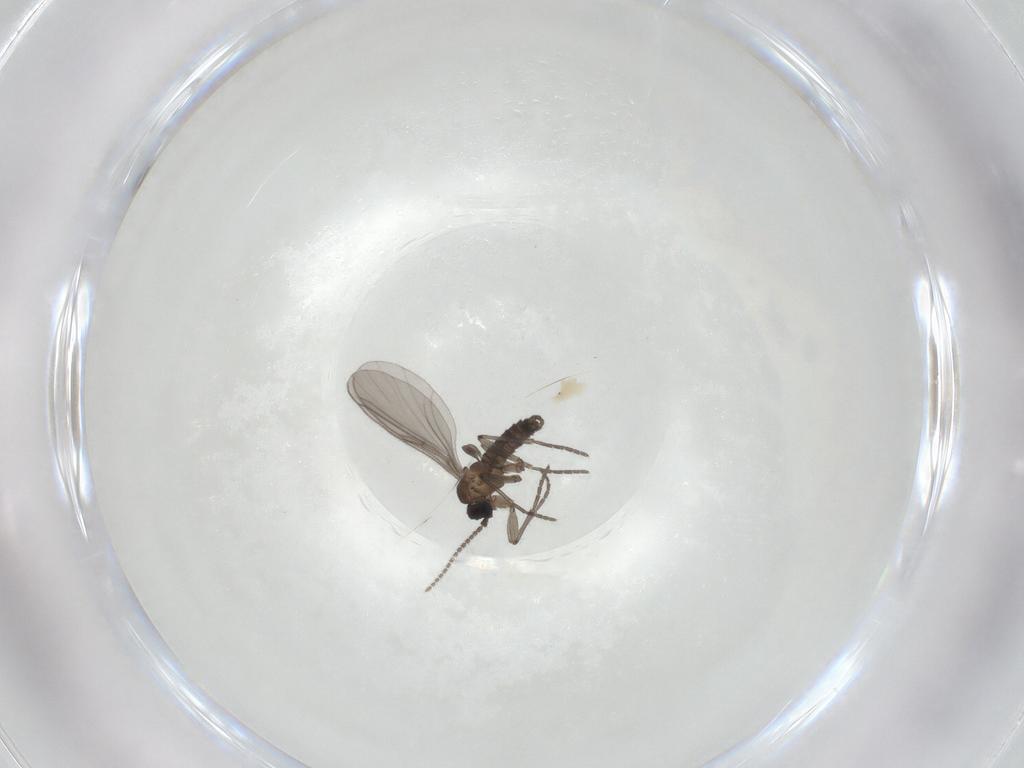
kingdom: Animalia
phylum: Arthropoda
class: Insecta
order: Diptera
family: Sciaridae
